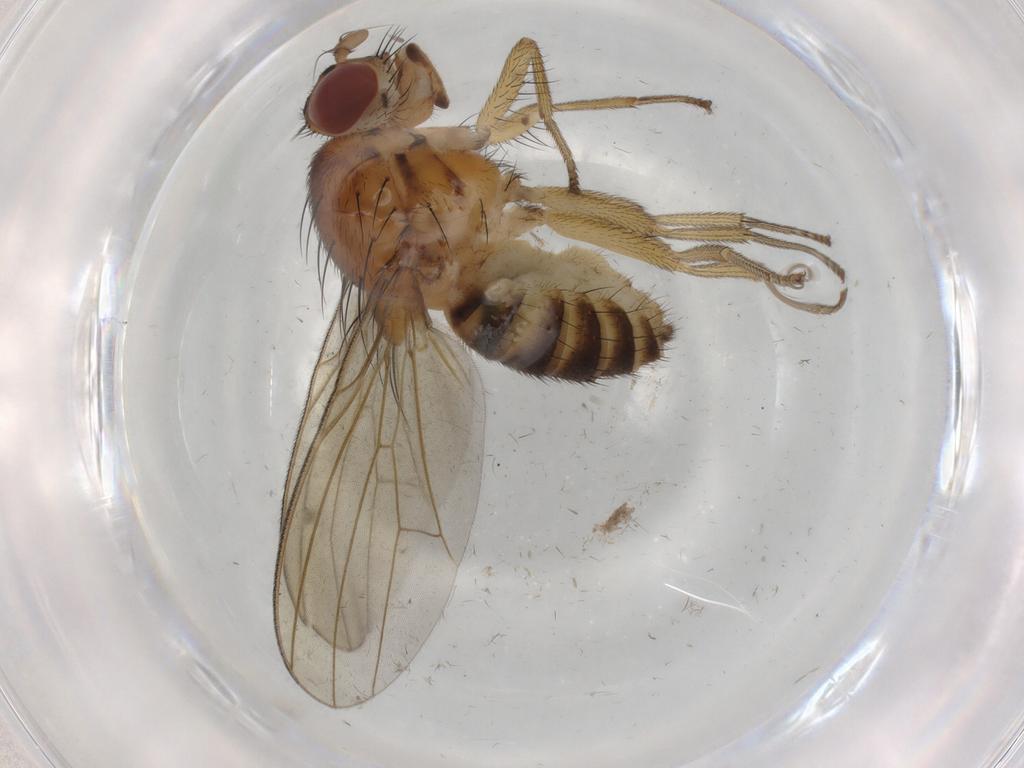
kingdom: Animalia
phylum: Arthropoda
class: Insecta
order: Diptera
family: Lauxaniidae
